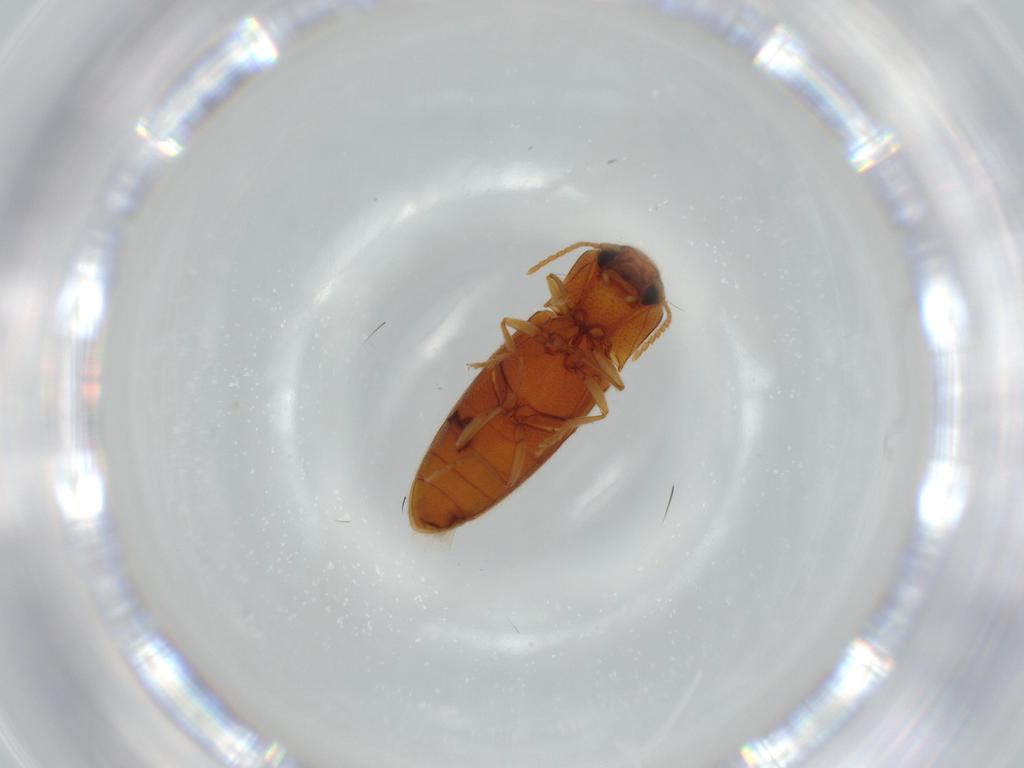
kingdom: Animalia
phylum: Arthropoda
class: Insecta
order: Coleoptera
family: Elateridae
